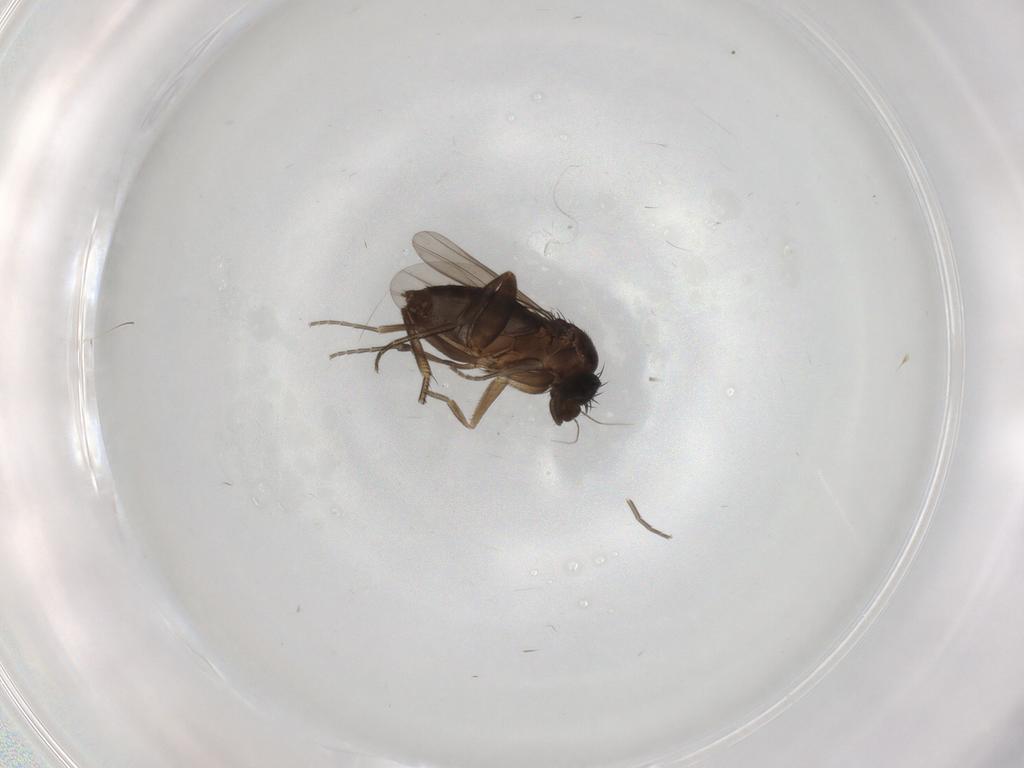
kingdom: Animalia
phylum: Arthropoda
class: Insecta
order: Diptera
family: Phoridae
